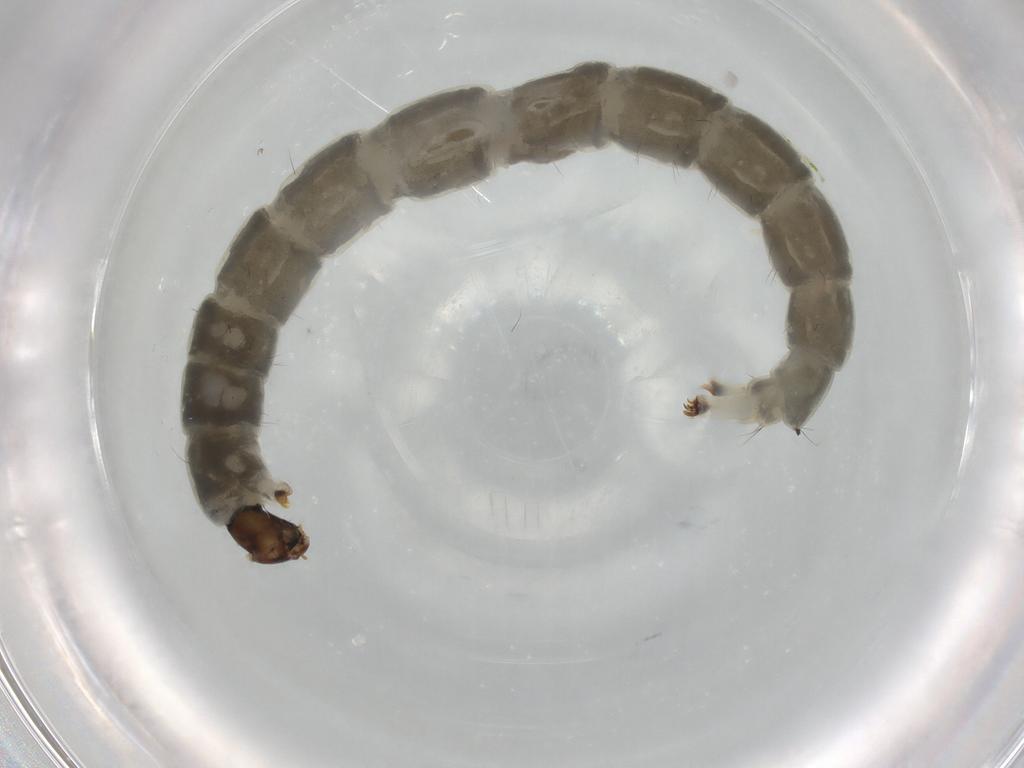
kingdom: Animalia
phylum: Arthropoda
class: Insecta
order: Diptera
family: Chironomidae
